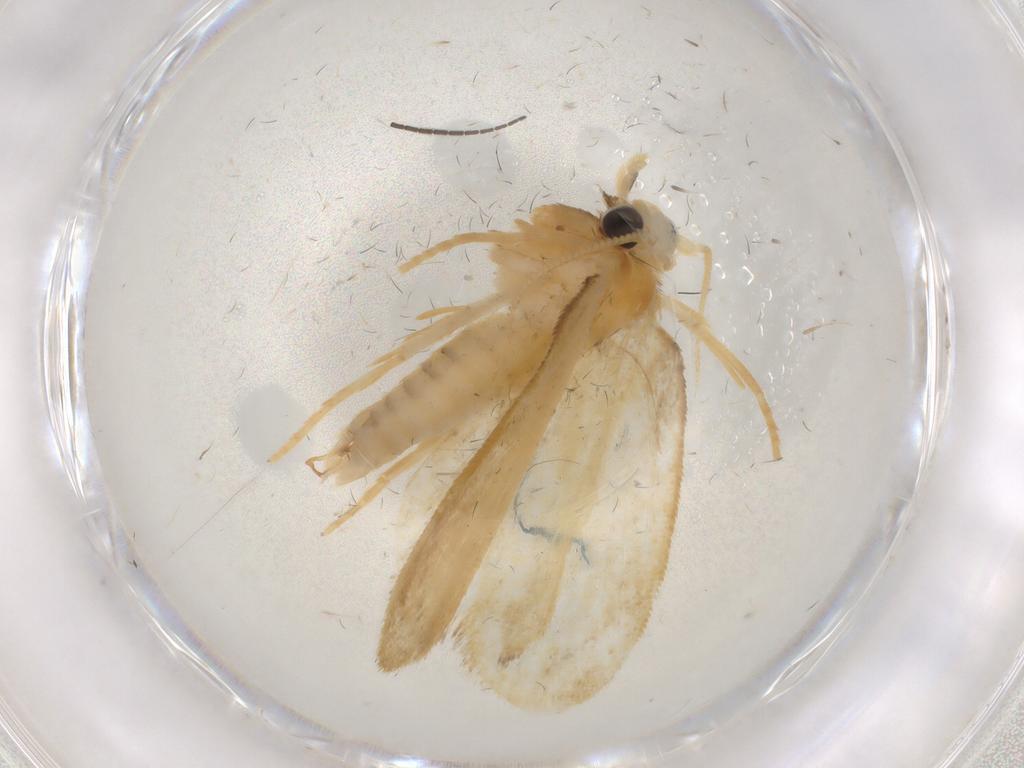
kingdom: Animalia
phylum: Arthropoda
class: Insecta
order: Lepidoptera
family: Psychidae
